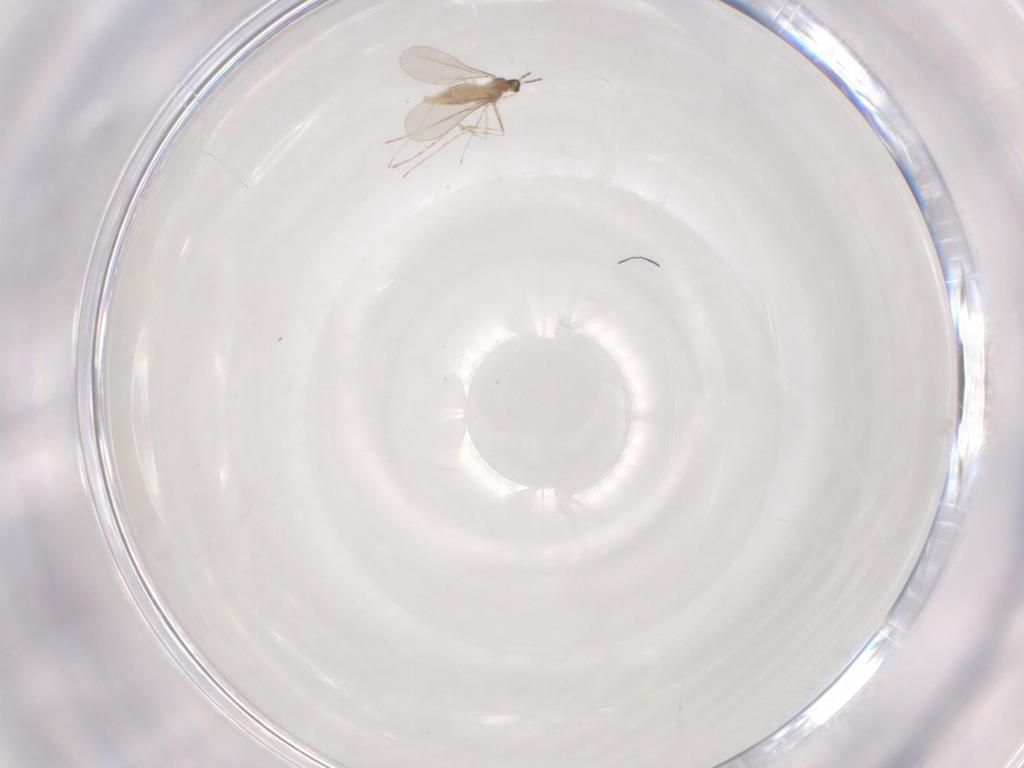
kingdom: Animalia
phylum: Arthropoda
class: Insecta
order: Diptera
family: Cecidomyiidae
